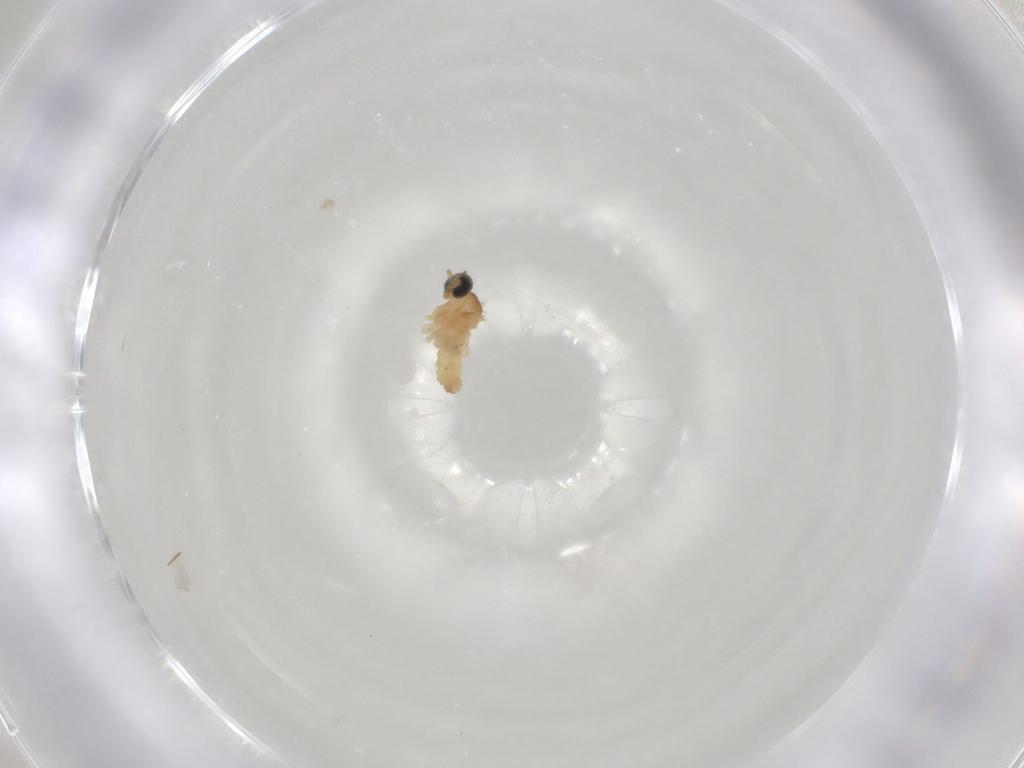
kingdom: Animalia
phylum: Arthropoda
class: Insecta
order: Diptera
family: Cecidomyiidae
